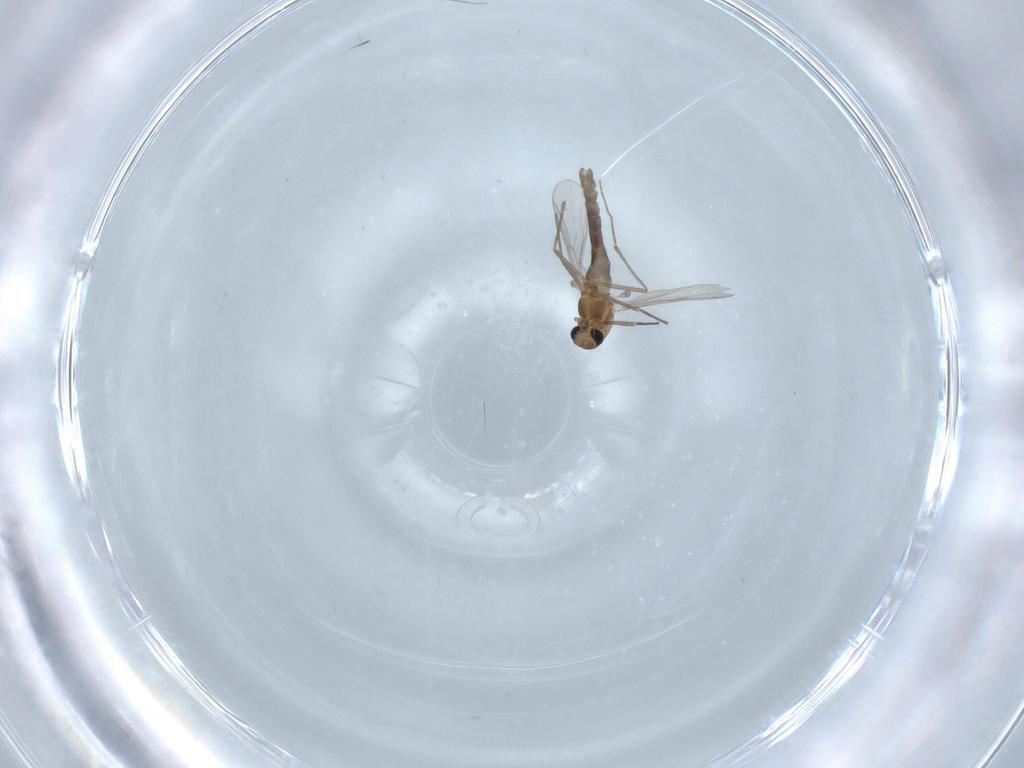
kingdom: Animalia
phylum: Arthropoda
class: Insecta
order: Diptera
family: Chironomidae
